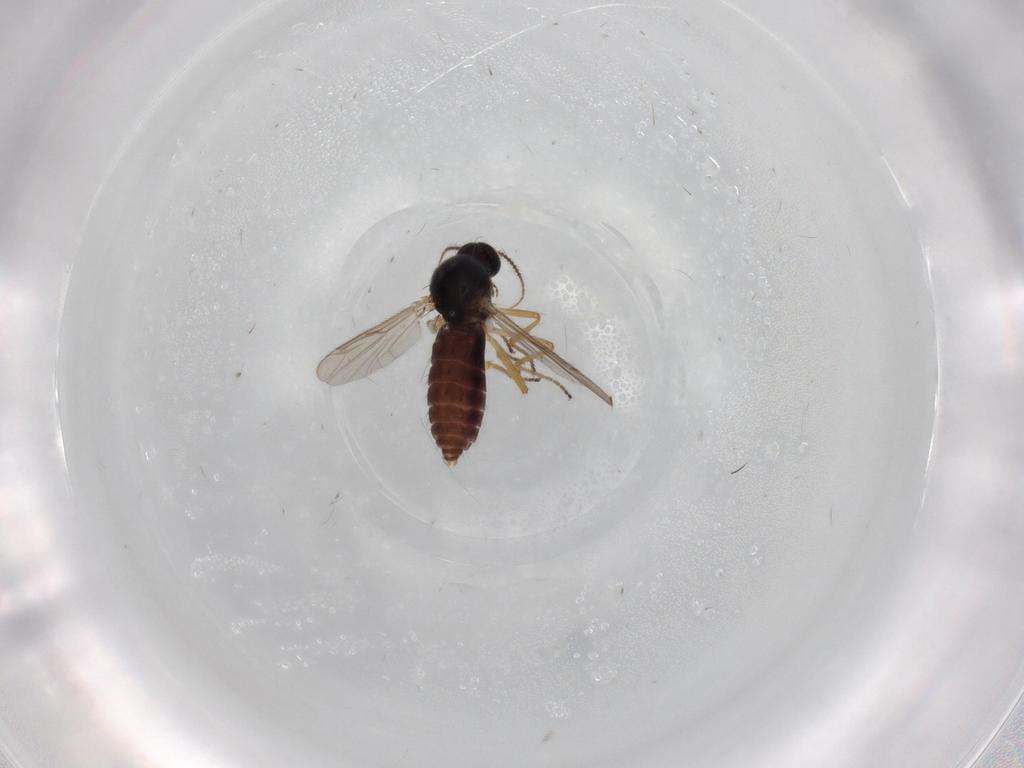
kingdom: Animalia
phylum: Arthropoda
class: Insecta
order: Diptera
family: Ceratopogonidae
